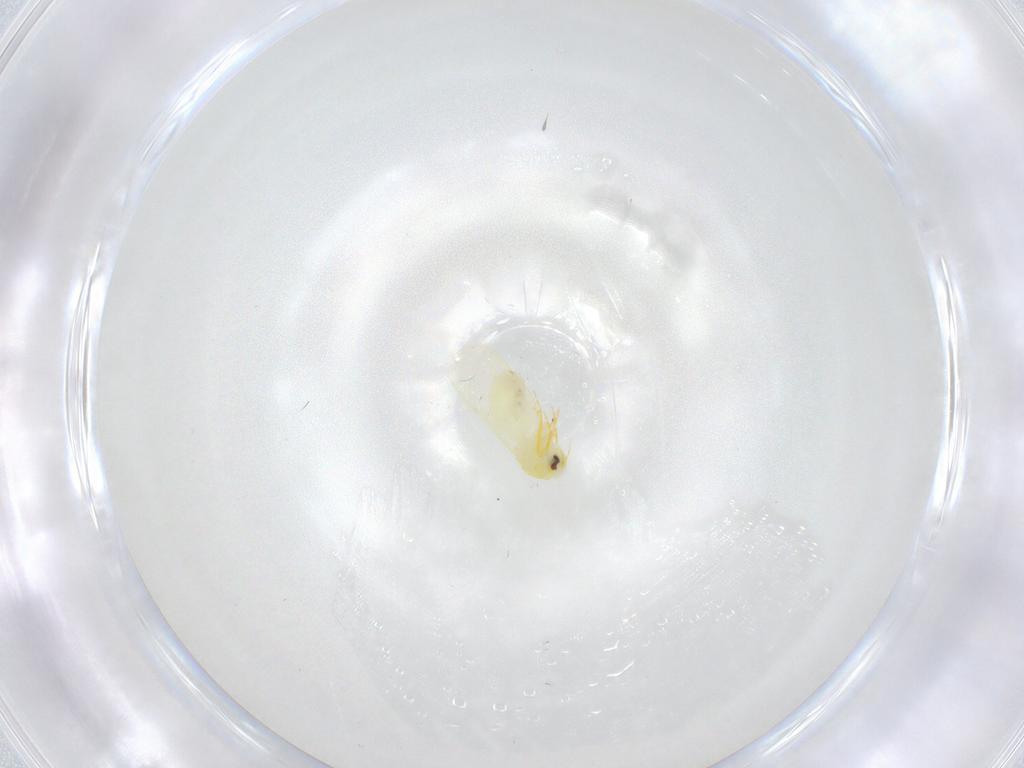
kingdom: Animalia
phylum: Arthropoda
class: Insecta
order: Hemiptera
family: Aleyrodidae
